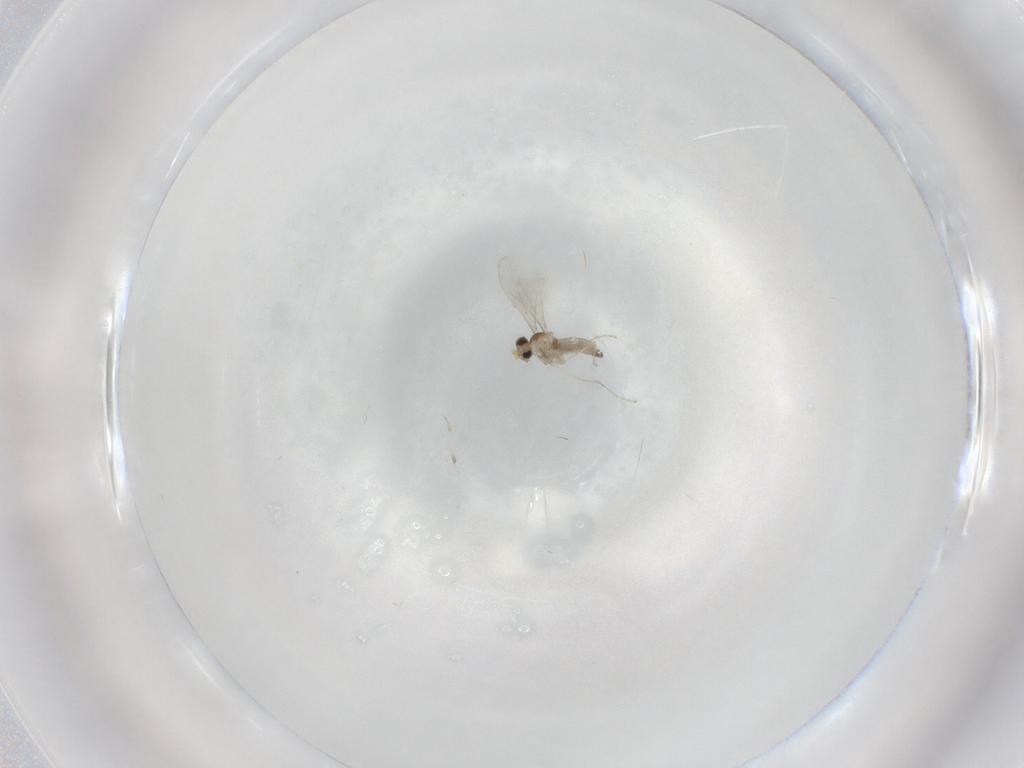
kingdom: Animalia
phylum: Arthropoda
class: Insecta
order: Diptera
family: Cecidomyiidae
